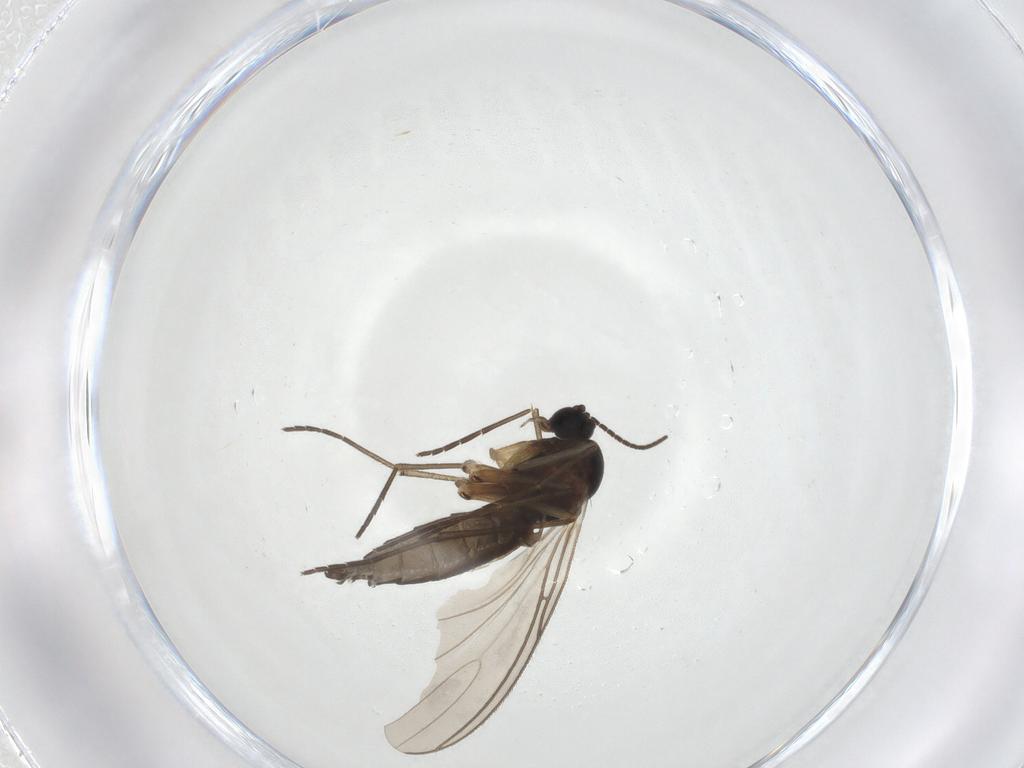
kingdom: Animalia
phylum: Arthropoda
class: Insecta
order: Diptera
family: Sciaridae
